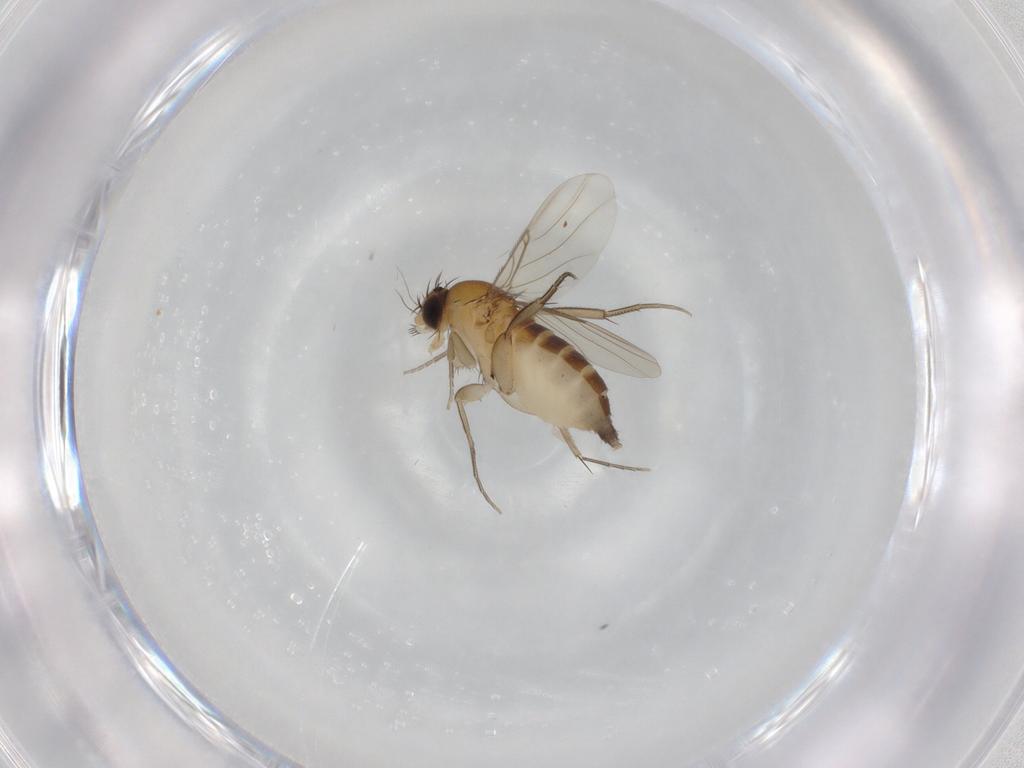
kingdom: Animalia
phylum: Arthropoda
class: Insecta
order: Diptera
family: Phoridae
